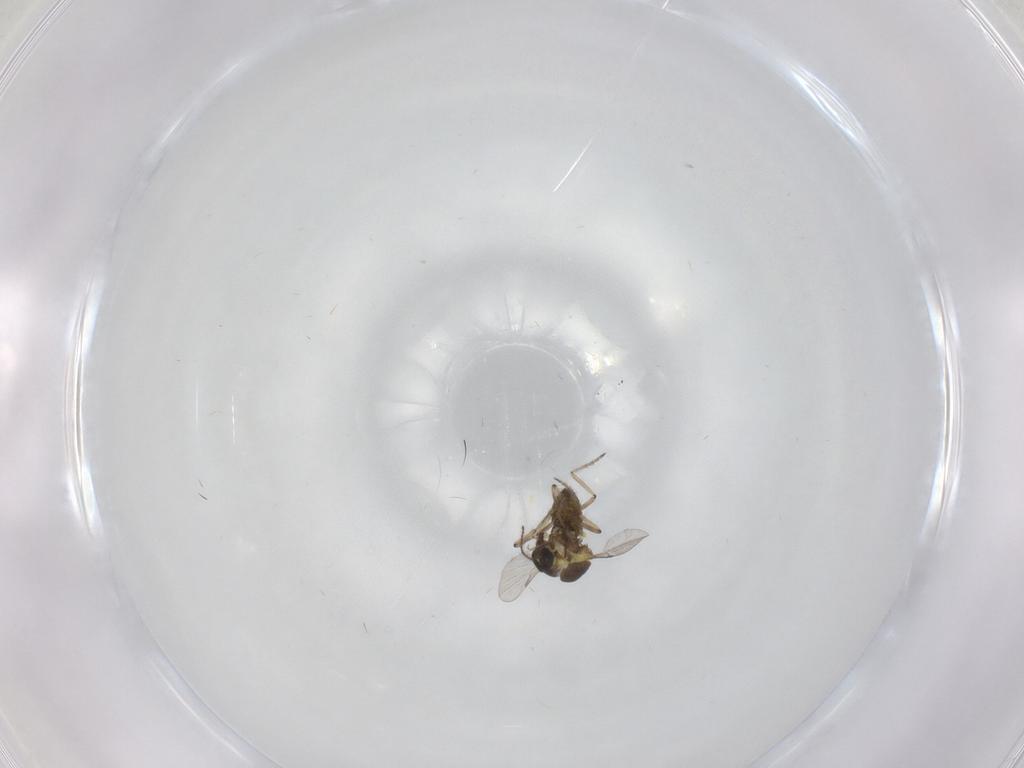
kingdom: Animalia
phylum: Arthropoda
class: Insecta
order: Diptera
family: Ceratopogonidae
